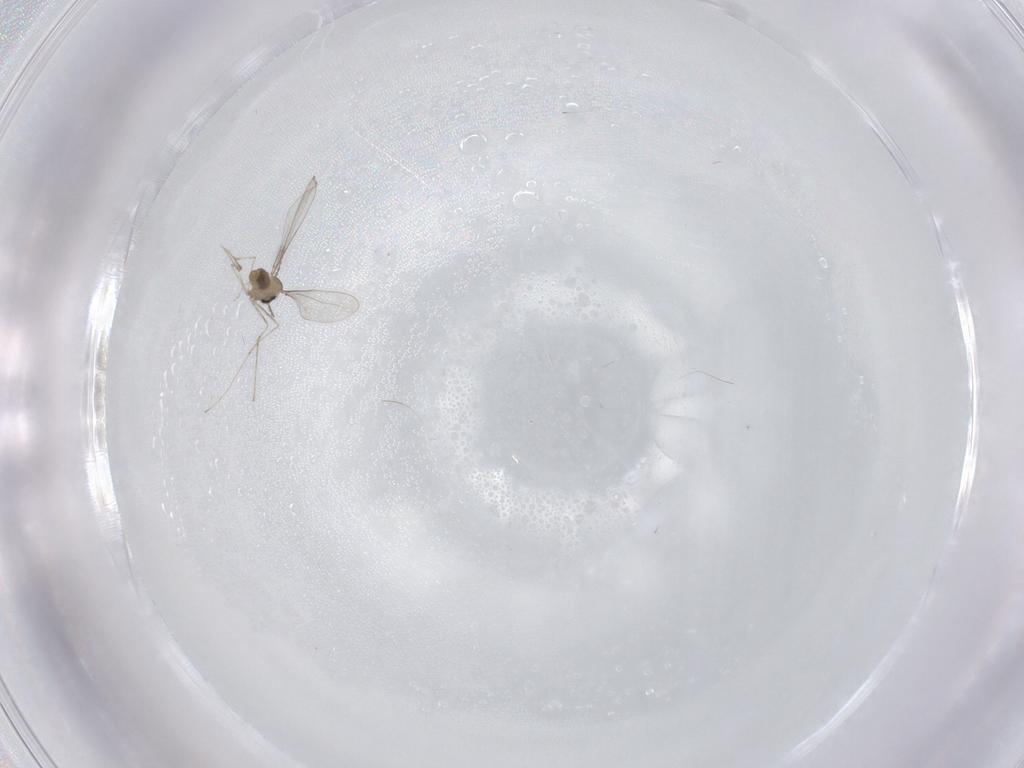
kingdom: Animalia
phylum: Arthropoda
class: Insecta
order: Diptera
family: Cecidomyiidae
